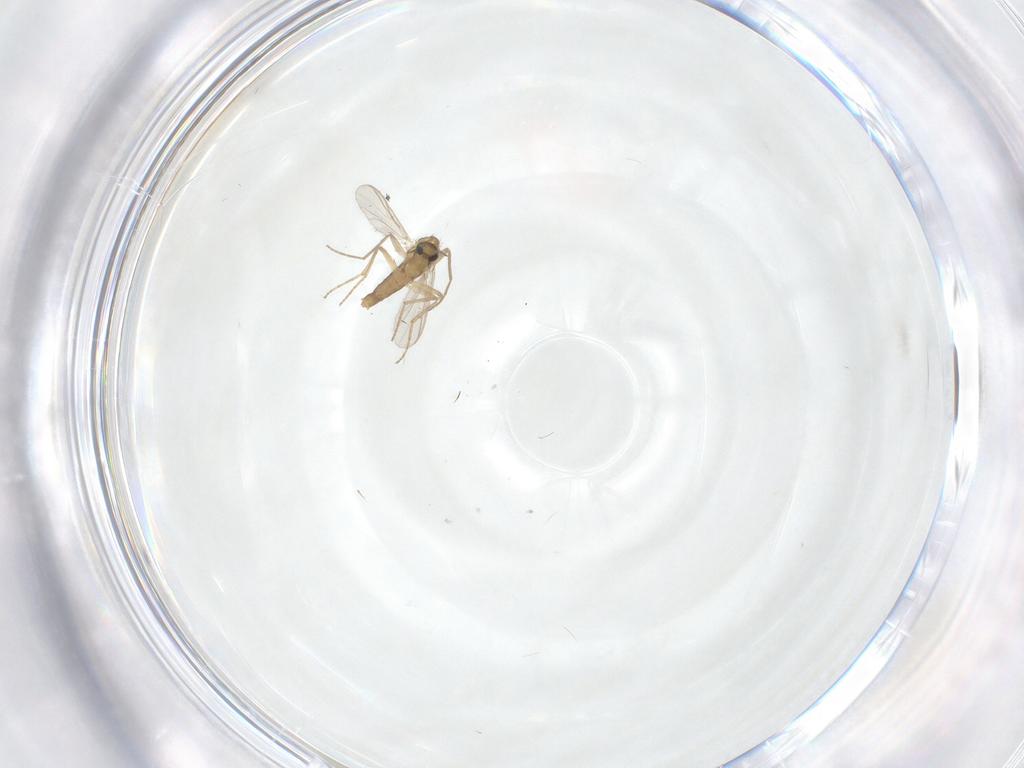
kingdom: Animalia
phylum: Arthropoda
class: Insecta
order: Diptera
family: Chironomidae
